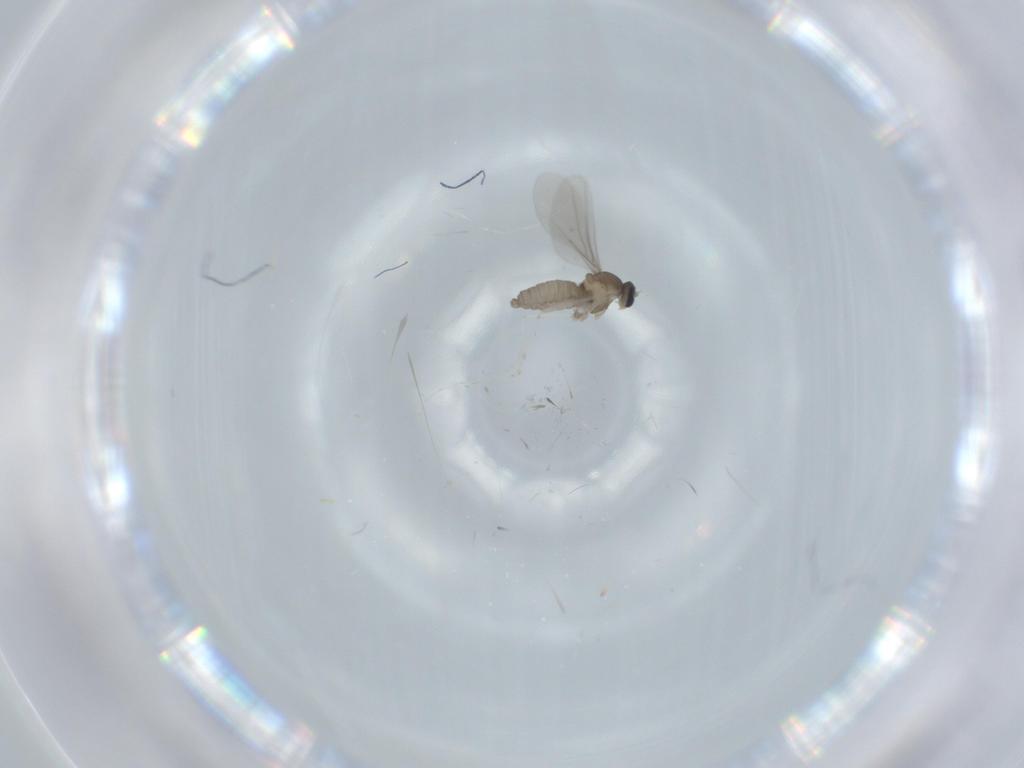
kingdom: Animalia
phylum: Arthropoda
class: Insecta
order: Diptera
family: Cecidomyiidae
